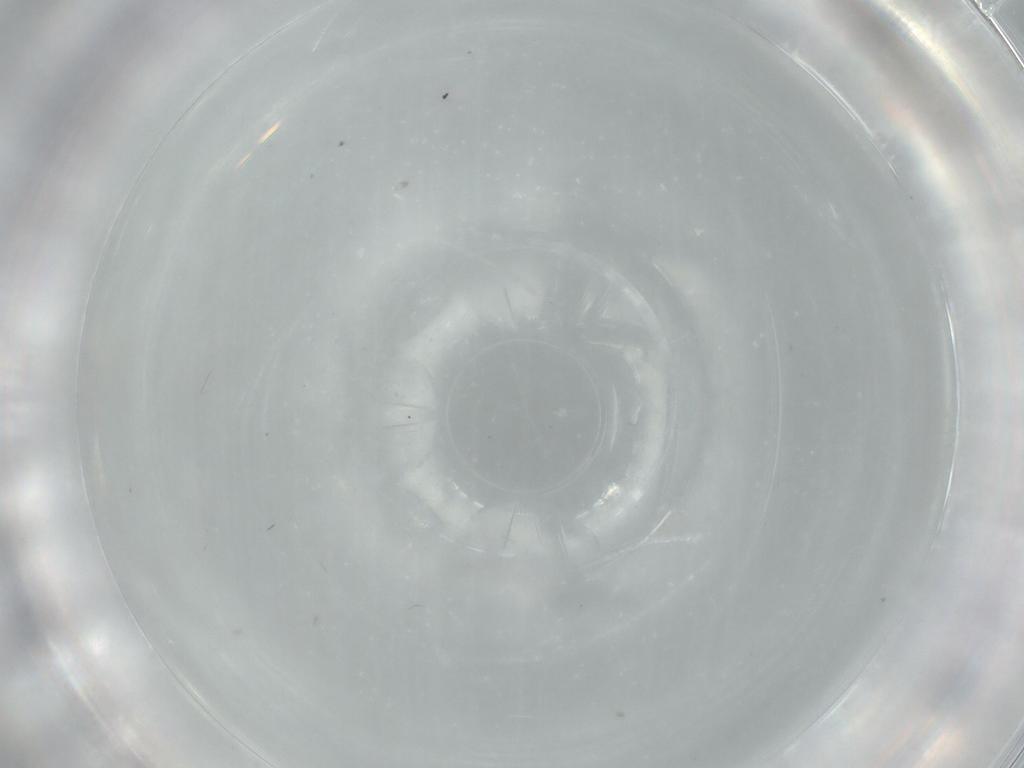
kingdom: Animalia
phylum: Arthropoda
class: Insecta
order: Diptera
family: Cecidomyiidae
